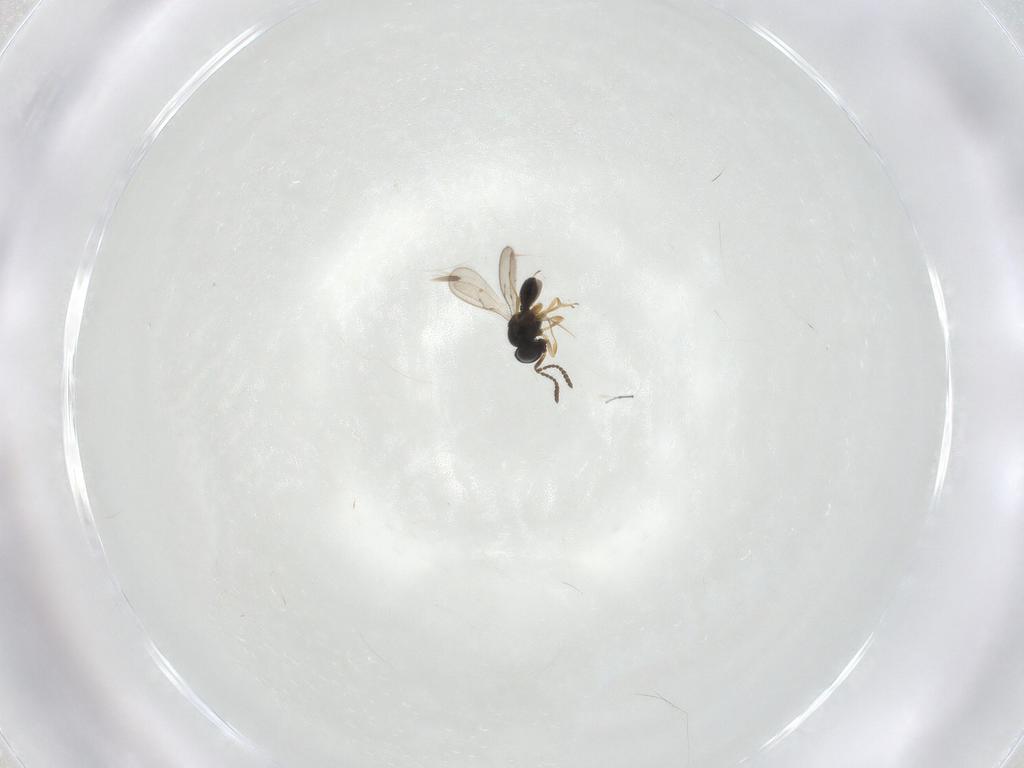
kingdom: Animalia
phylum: Arthropoda
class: Insecta
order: Hymenoptera
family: Scelionidae
